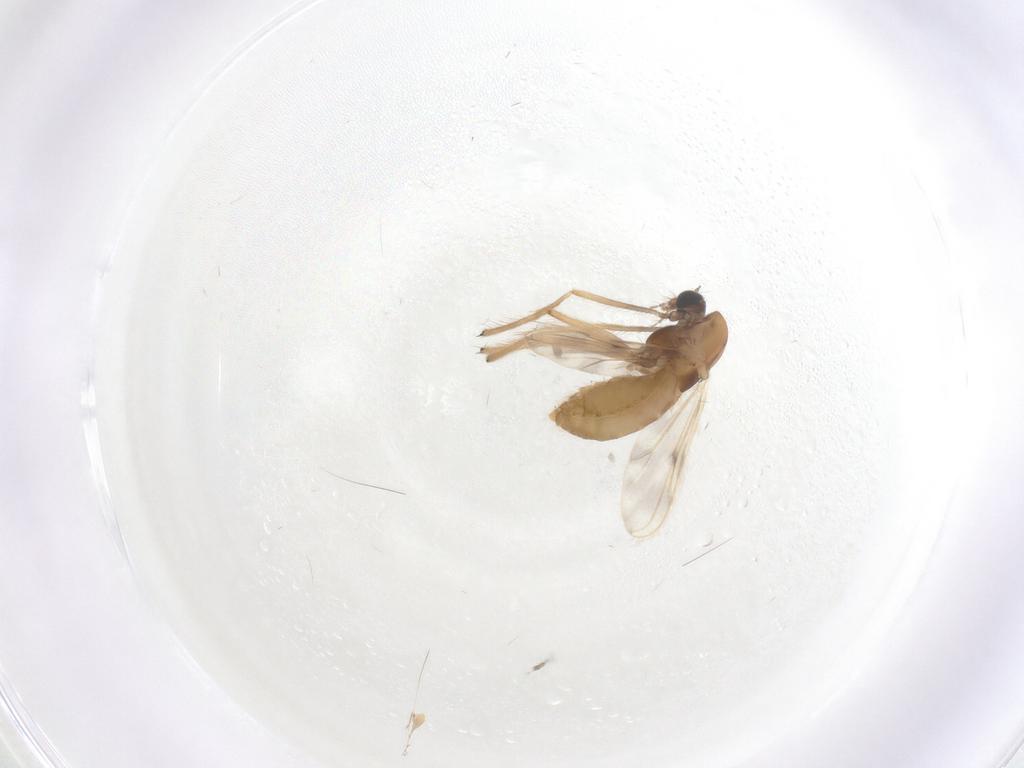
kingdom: Animalia
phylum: Arthropoda
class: Insecta
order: Diptera
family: Chironomidae
